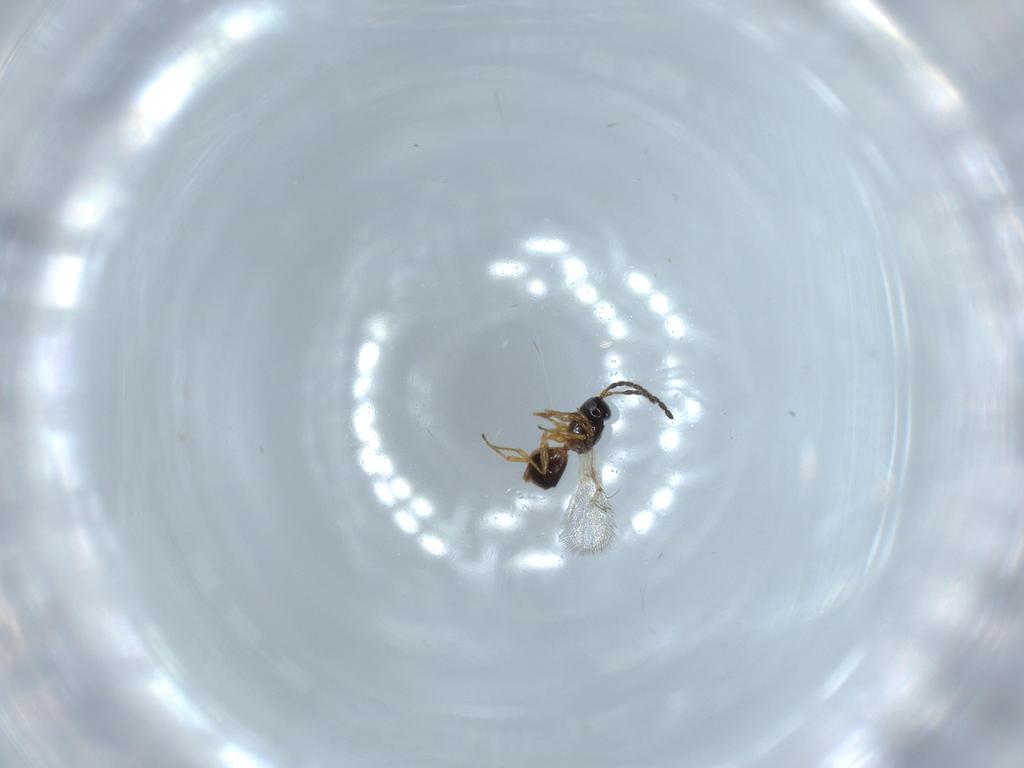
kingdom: Animalia
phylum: Arthropoda
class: Insecta
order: Hymenoptera
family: Figitidae
